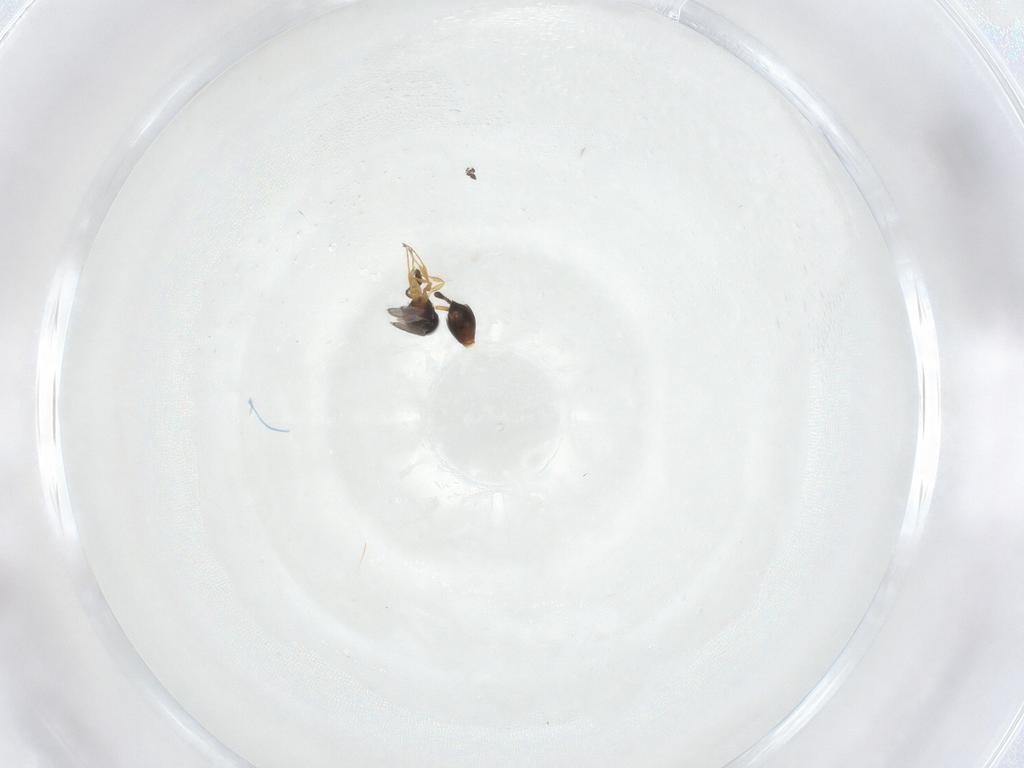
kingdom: Animalia
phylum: Arthropoda
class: Insecta
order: Hymenoptera
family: Scelionidae
